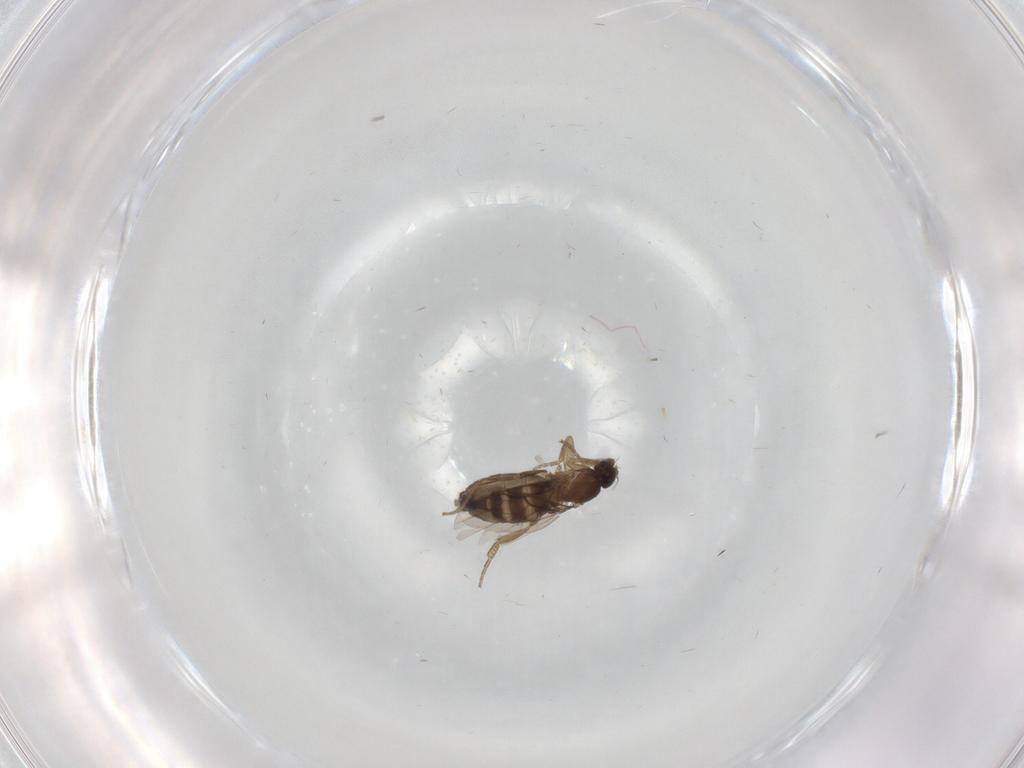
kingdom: Animalia
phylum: Arthropoda
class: Insecta
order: Diptera
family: Phoridae
